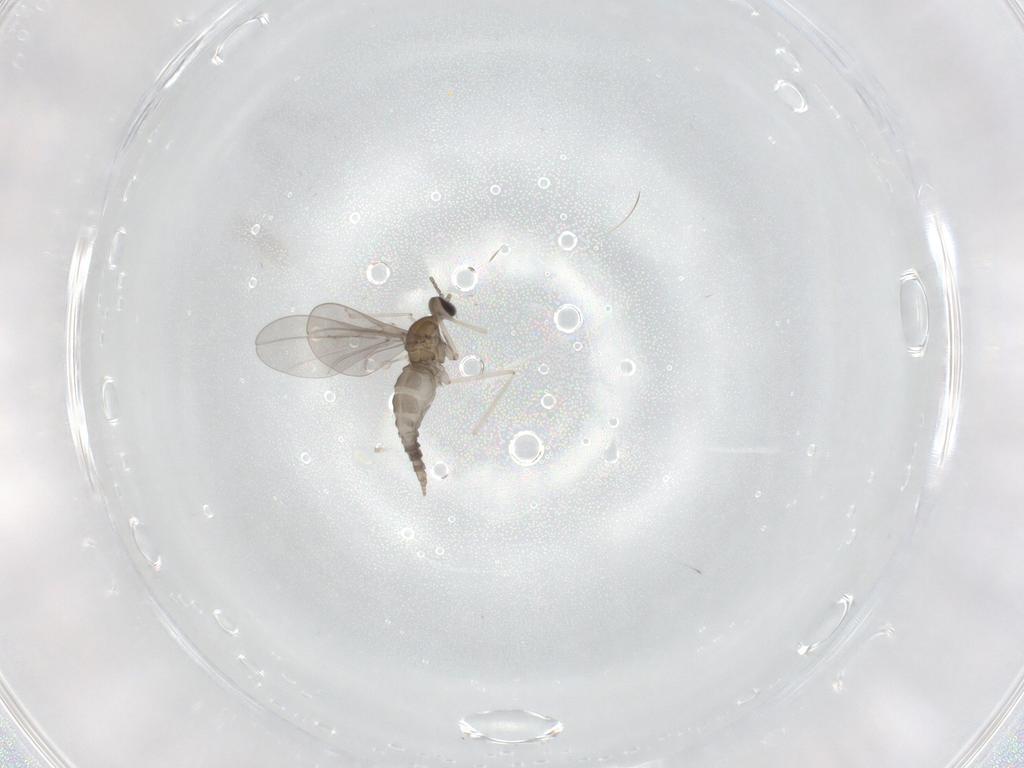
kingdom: Animalia
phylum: Arthropoda
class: Insecta
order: Diptera
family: Cecidomyiidae
